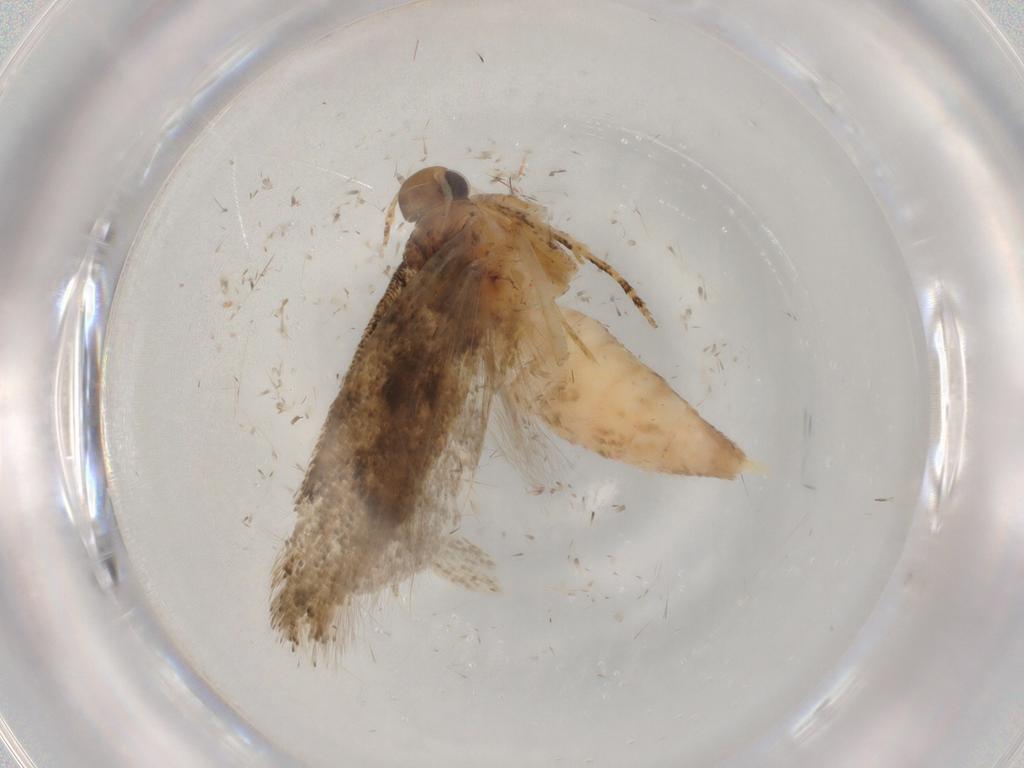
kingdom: Animalia
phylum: Arthropoda
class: Insecta
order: Lepidoptera
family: Gelechiidae
